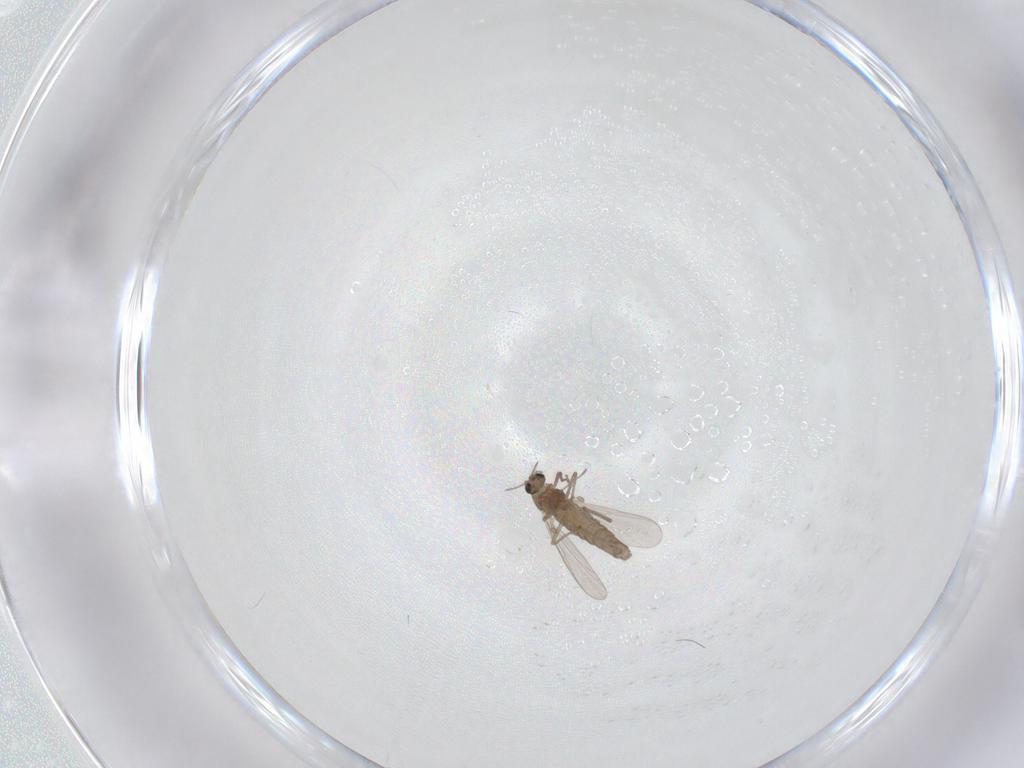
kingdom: Animalia
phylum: Arthropoda
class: Insecta
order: Diptera
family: Chironomidae
